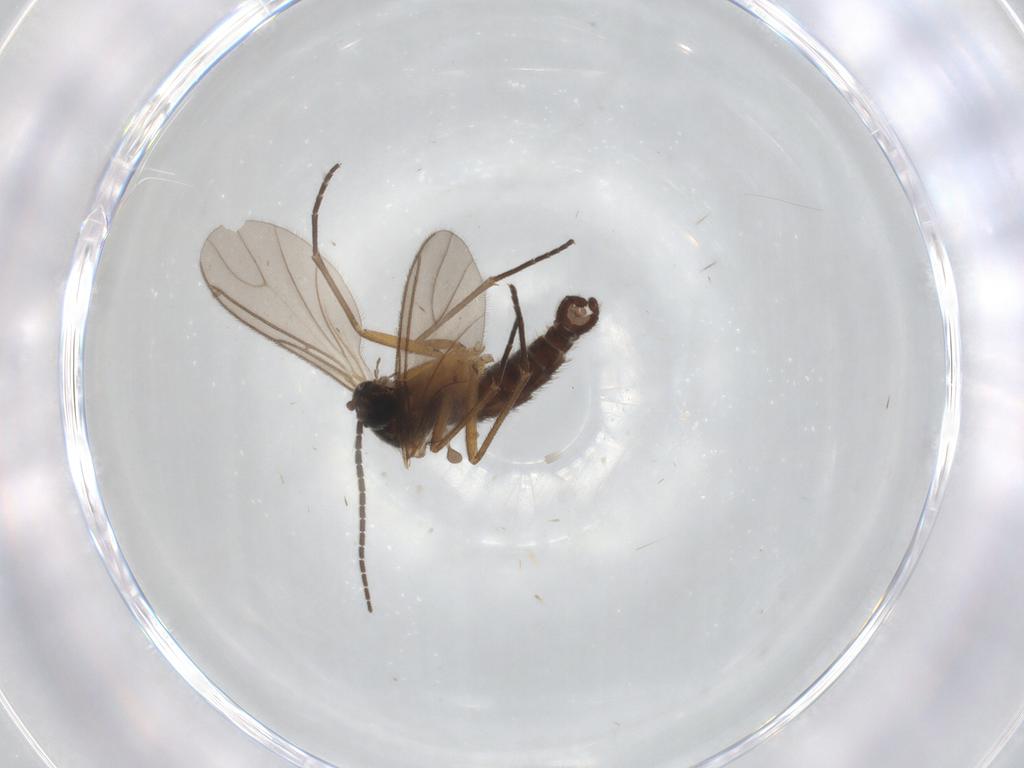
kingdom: Animalia
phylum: Arthropoda
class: Insecta
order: Diptera
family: Sciaridae
